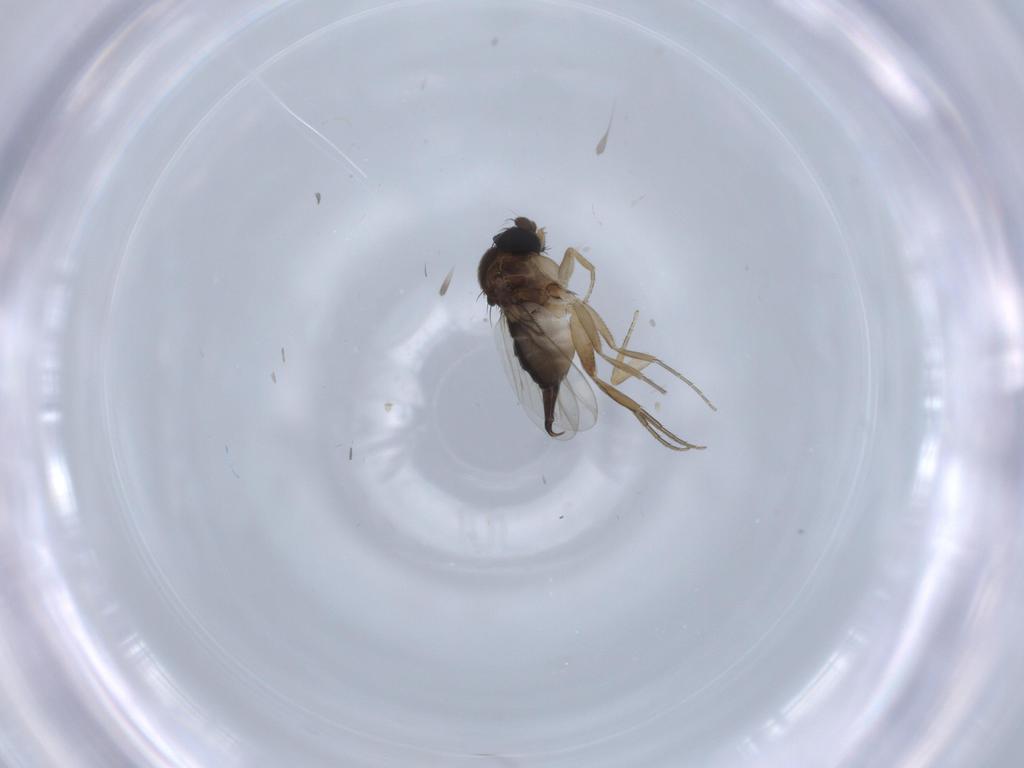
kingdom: Animalia
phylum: Arthropoda
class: Insecta
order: Diptera
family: Phoridae
